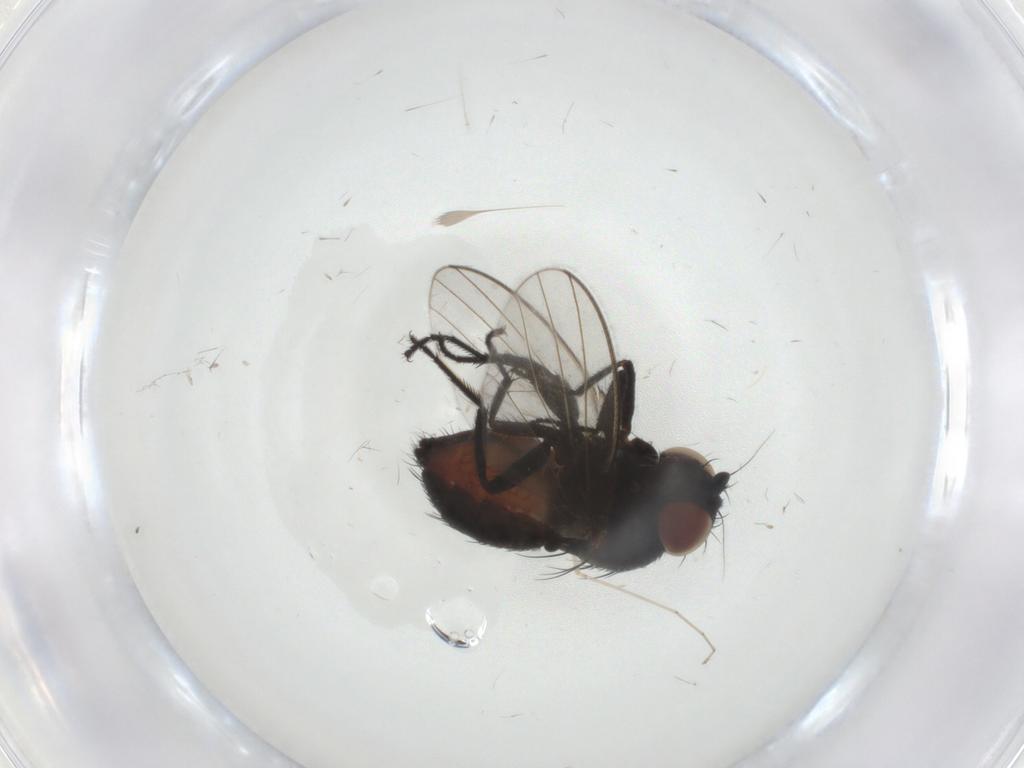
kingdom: Animalia
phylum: Arthropoda
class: Insecta
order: Diptera
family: Milichiidae
